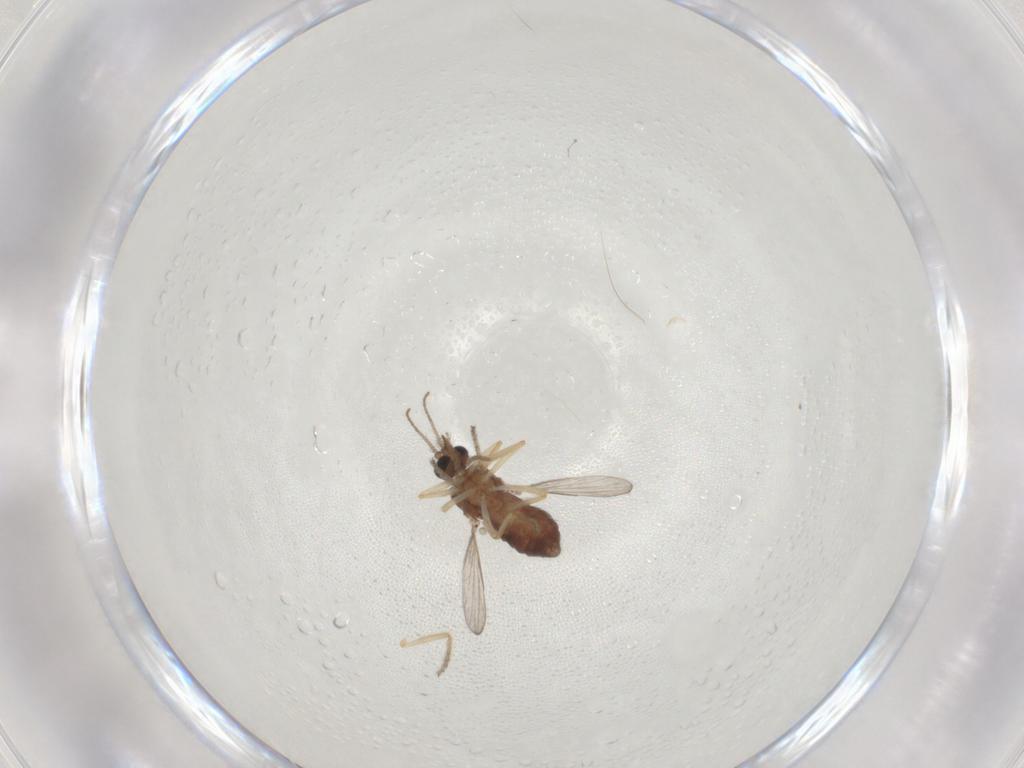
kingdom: Animalia
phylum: Arthropoda
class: Insecta
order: Diptera
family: Ceratopogonidae
